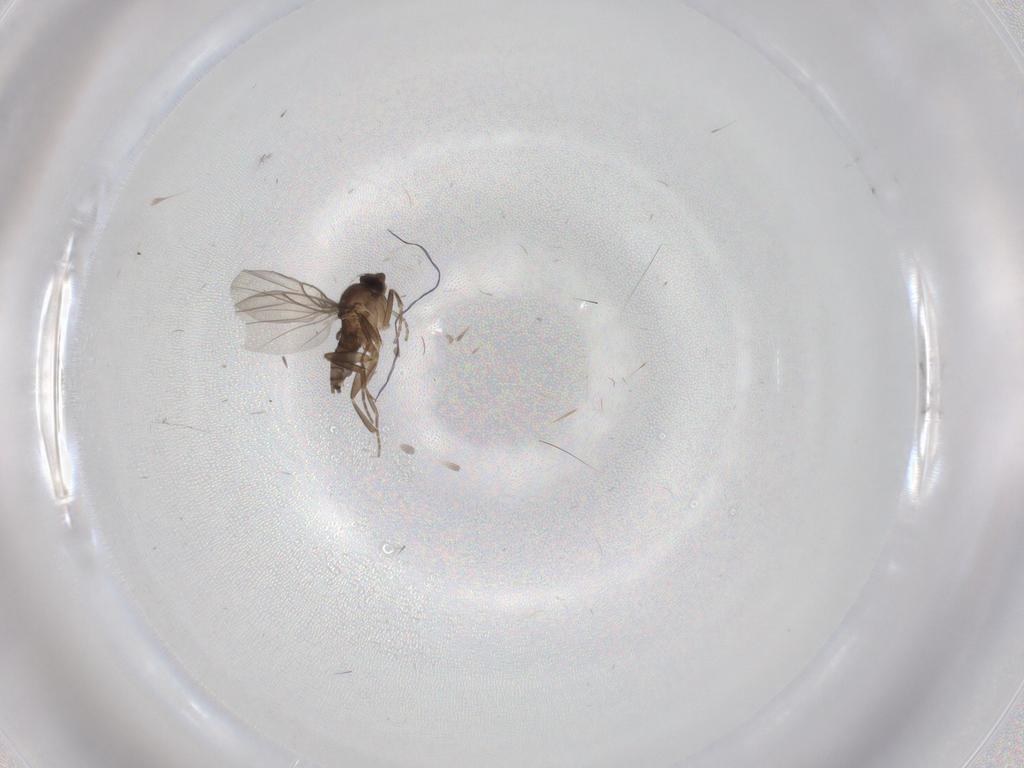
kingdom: Animalia
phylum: Arthropoda
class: Insecta
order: Diptera
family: Phoridae
